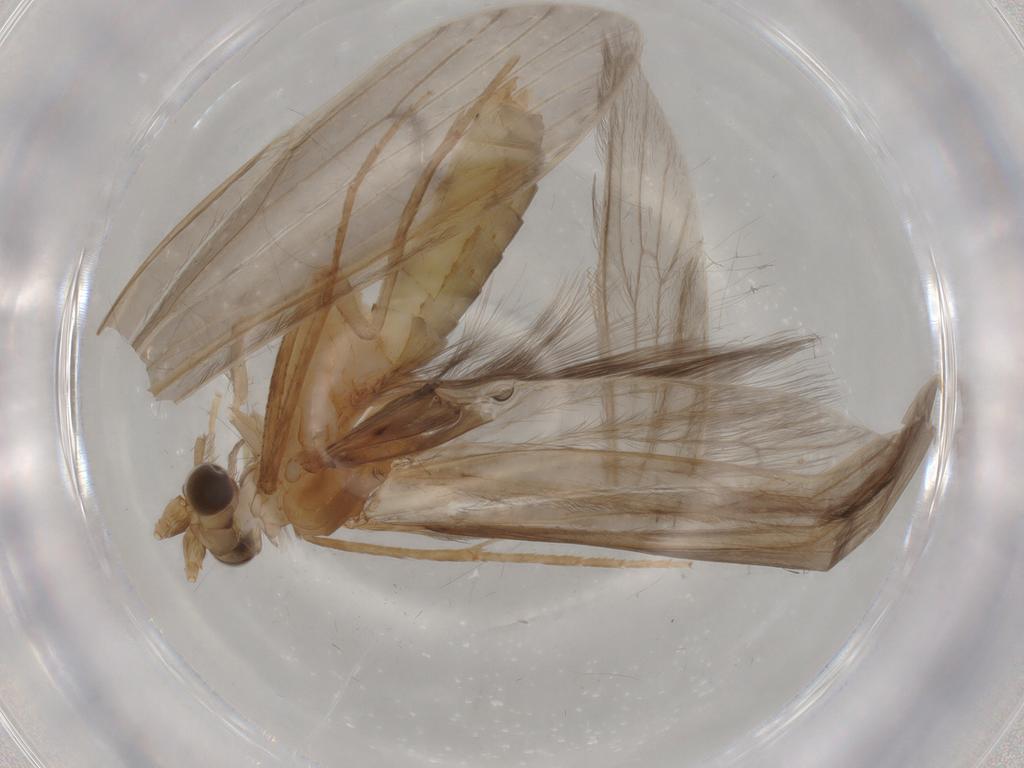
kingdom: Animalia
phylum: Arthropoda
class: Insecta
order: Trichoptera
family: Leptoceridae
